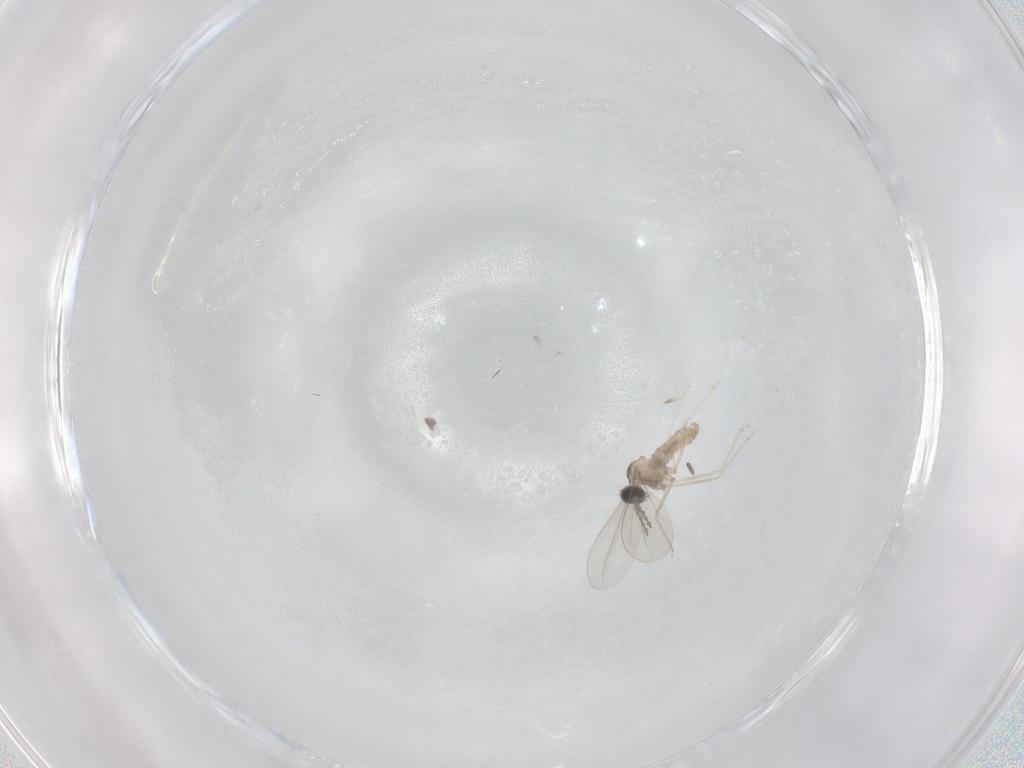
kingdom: Animalia
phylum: Arthropoda
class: Insecta
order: Diptera
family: Cecidomyiidae
